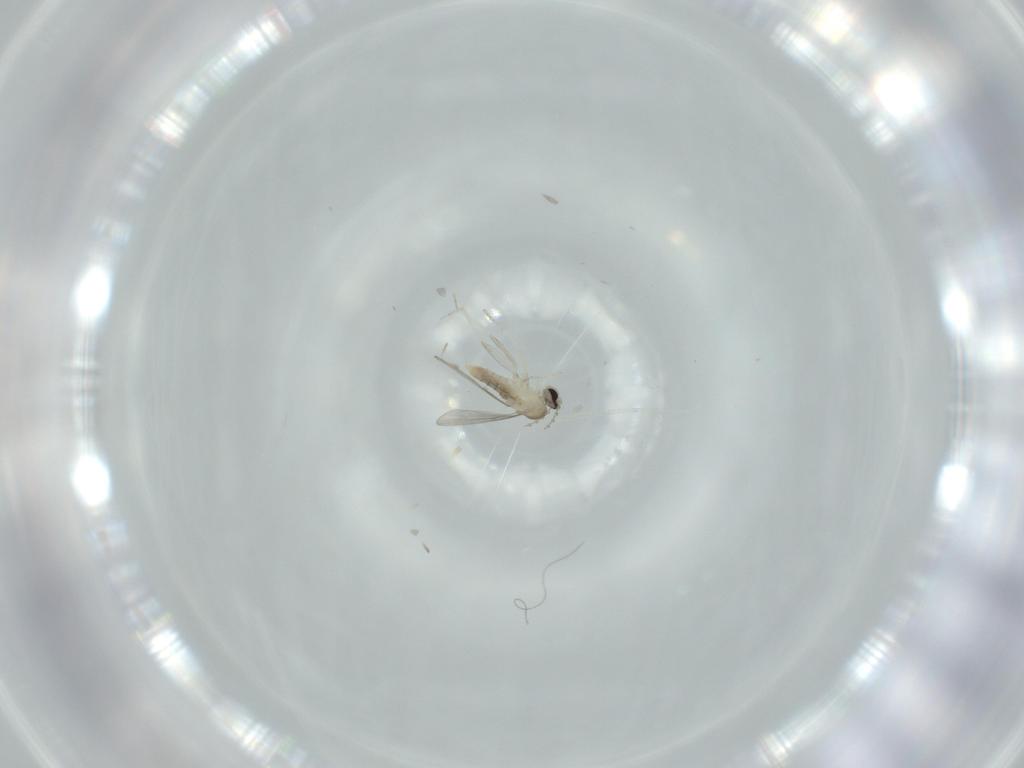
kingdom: Animalia
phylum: Arthropoda
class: Insecta
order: Diptera
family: Cecidomyiidae
